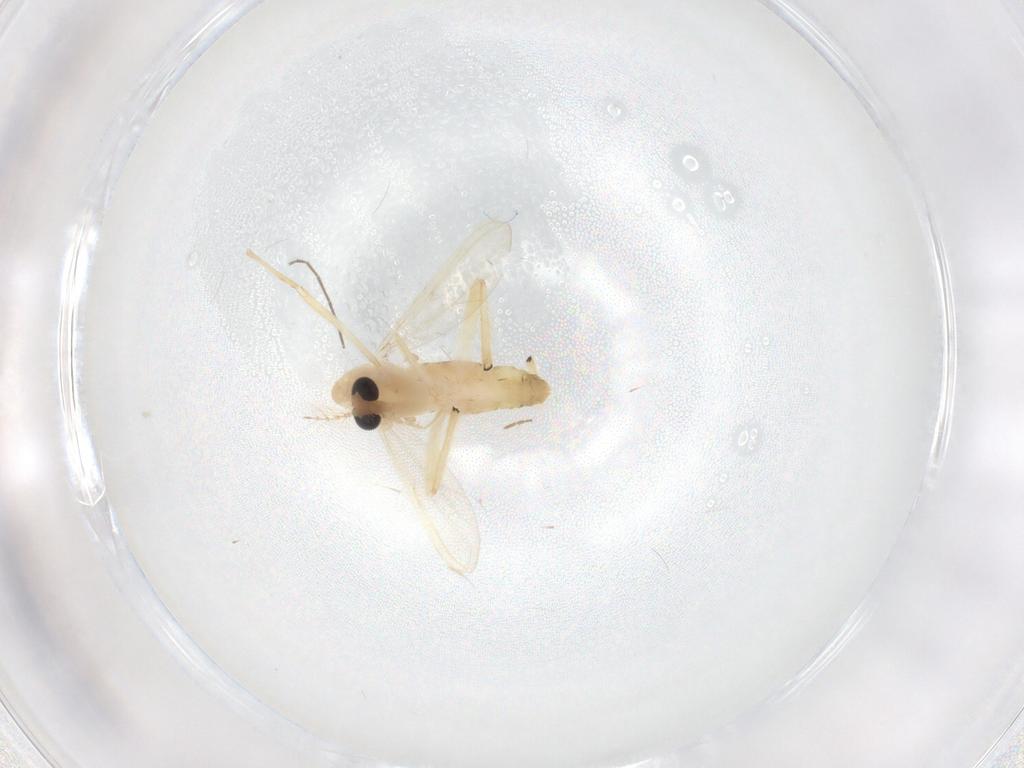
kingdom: Animalia
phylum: Arthropoda
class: Insecta
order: Diptera
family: Chironomidae
